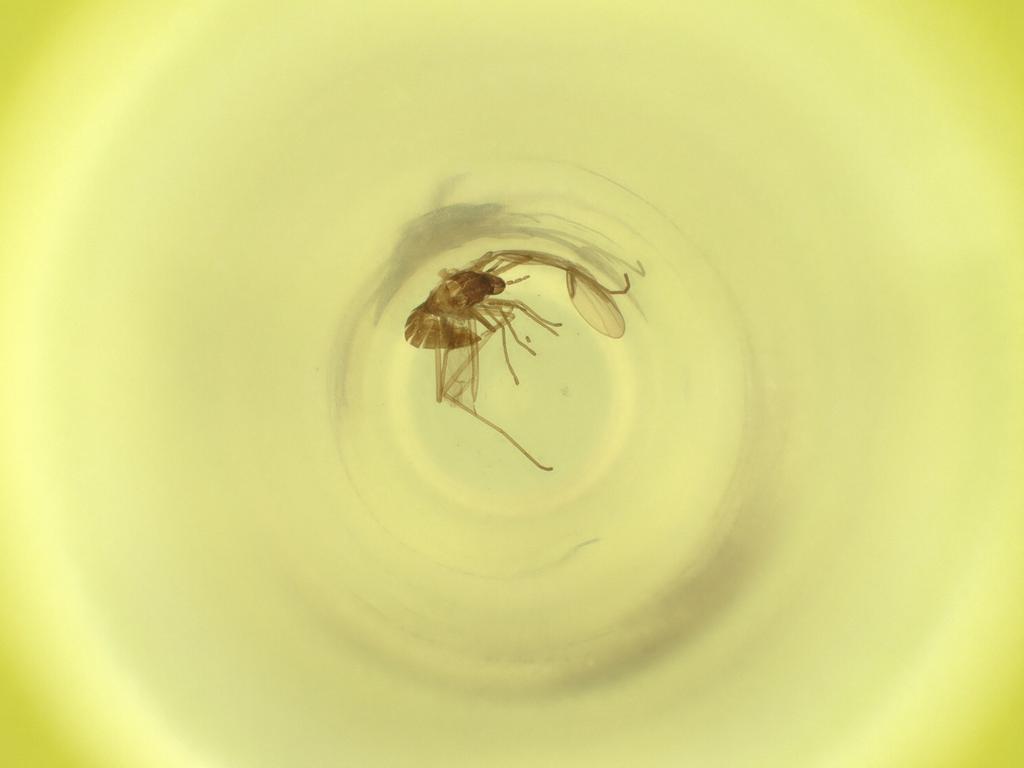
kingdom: Animalia
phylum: Arthropoda
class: Insecta
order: Diptera
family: Cecidomyiidae
